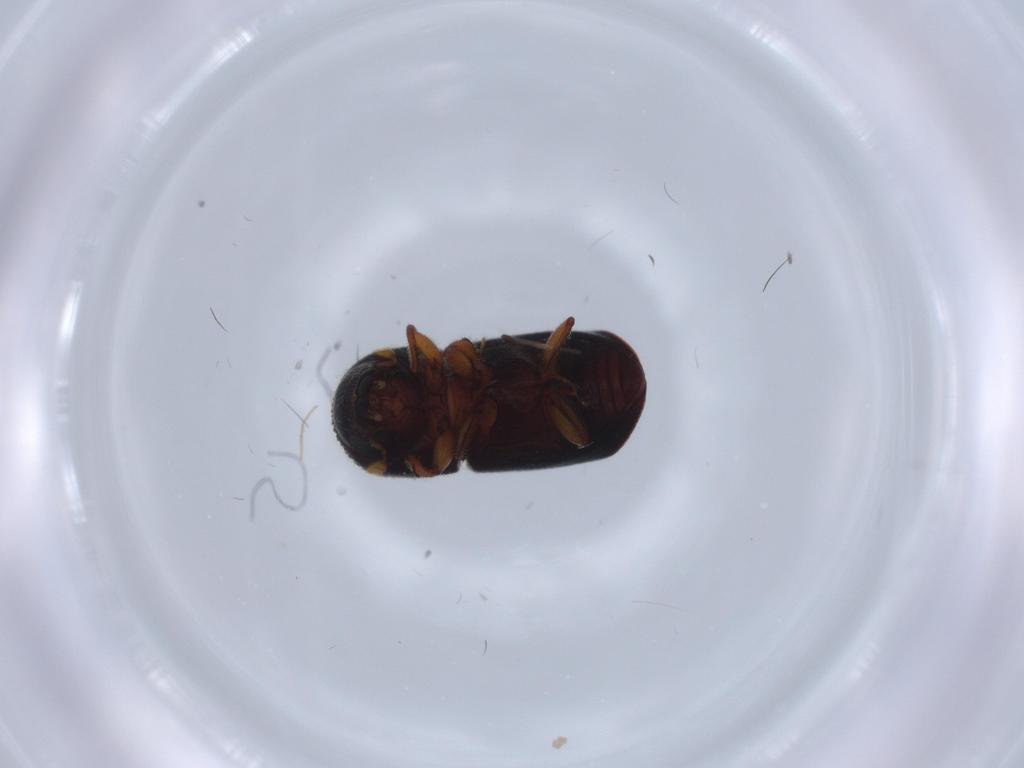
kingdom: Animalia
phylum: Arthropoda
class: Insecta
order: Coleoptera
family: Curculionidae
